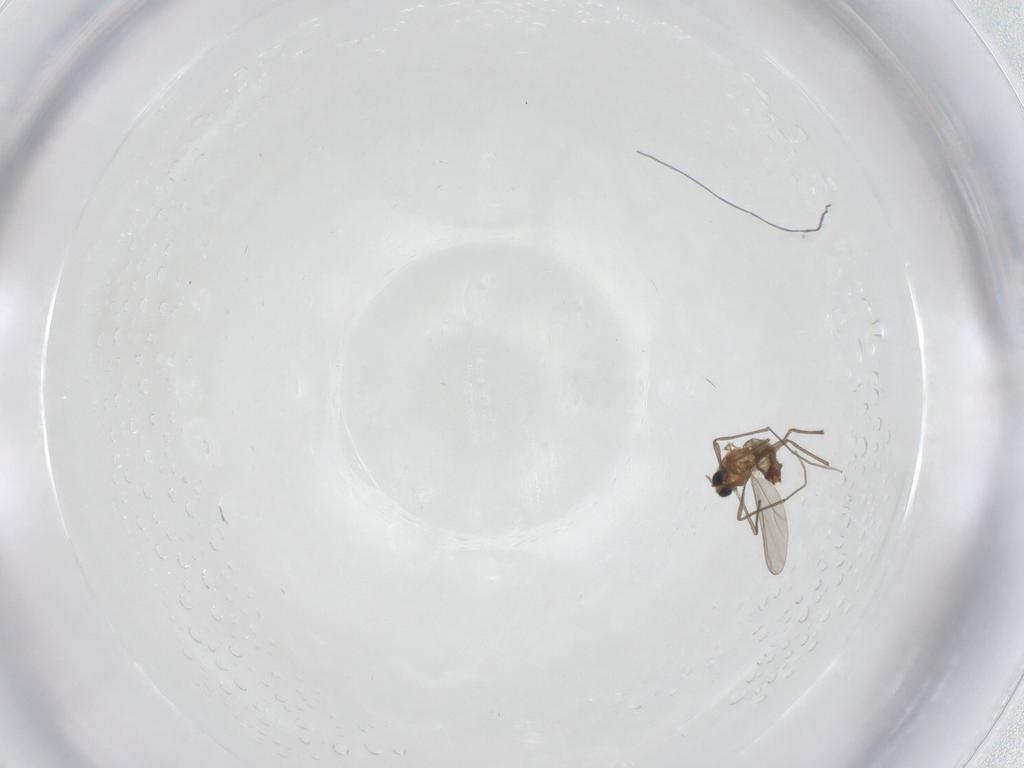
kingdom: Animalia
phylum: Arthropoda
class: Insecta
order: Diptera
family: Chironomidae
